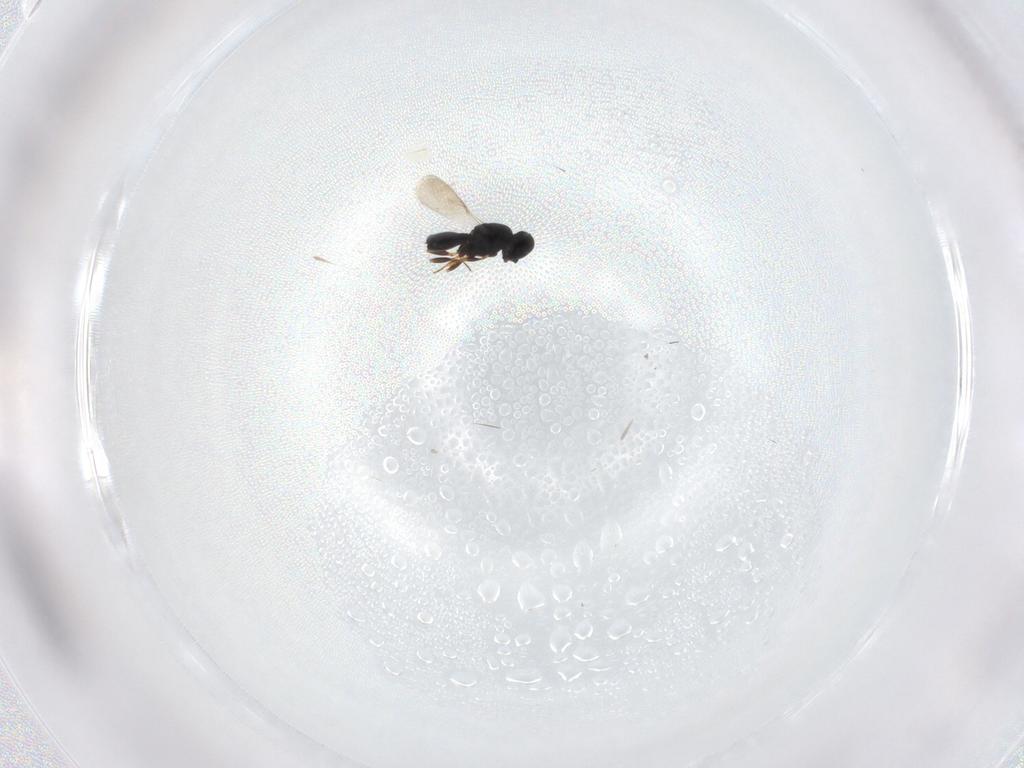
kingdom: Animalia
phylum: Arthropoda
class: Insecta
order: Hymenoptera
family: Scelionidae
